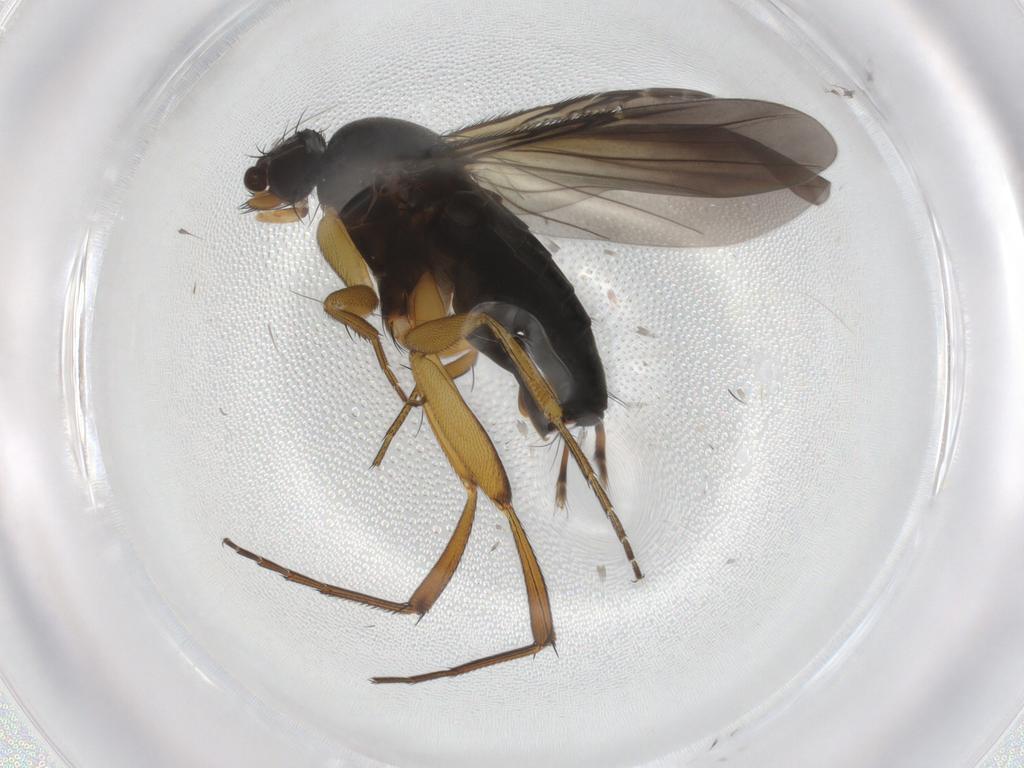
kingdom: Animalia
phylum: Arthropoda
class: Insecta
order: Diptera
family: Phoridae
